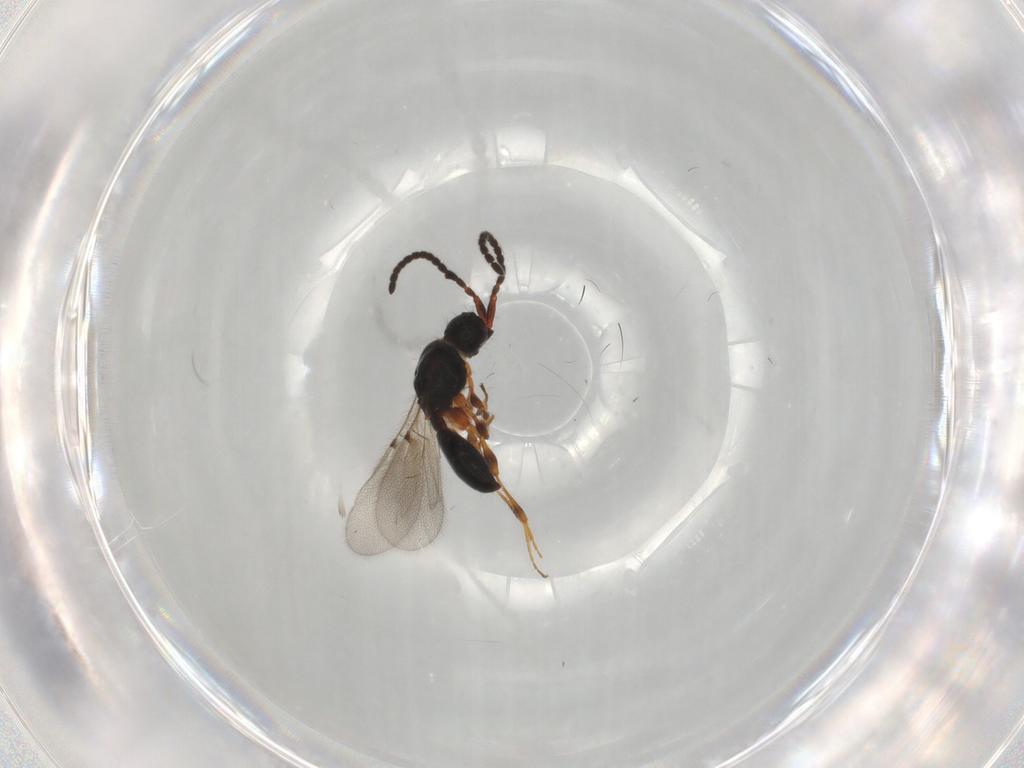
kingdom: Animalia
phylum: Arthropoda
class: Insecta
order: Hymenoptera
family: Diapriidae
